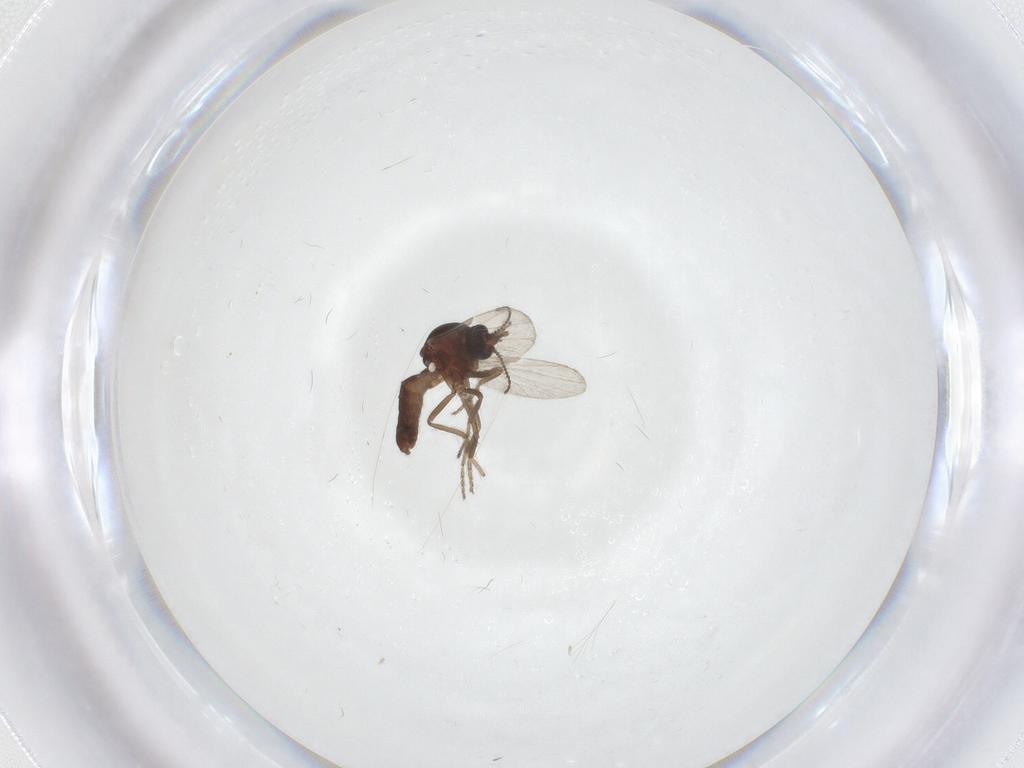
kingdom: Animalia
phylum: Arthropoda
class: Insecta
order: Diptera
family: Ceratopogonidae
